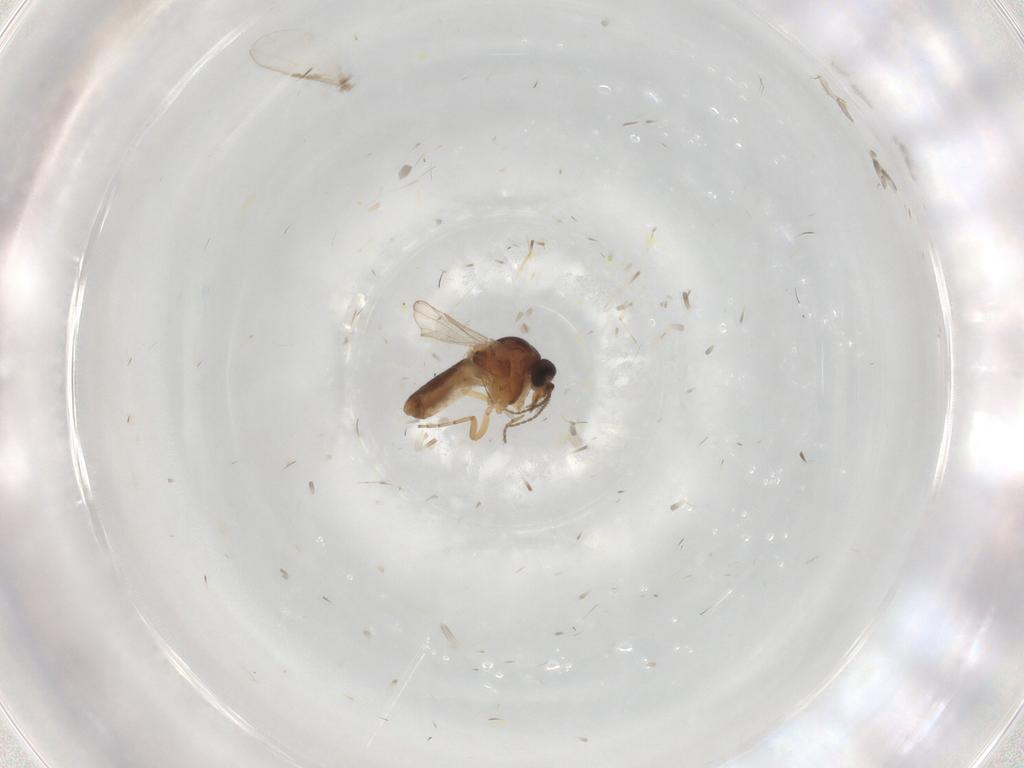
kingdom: Animalia
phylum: Arthropoda
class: Insecta
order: Diptera
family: Ceratopogonidae
